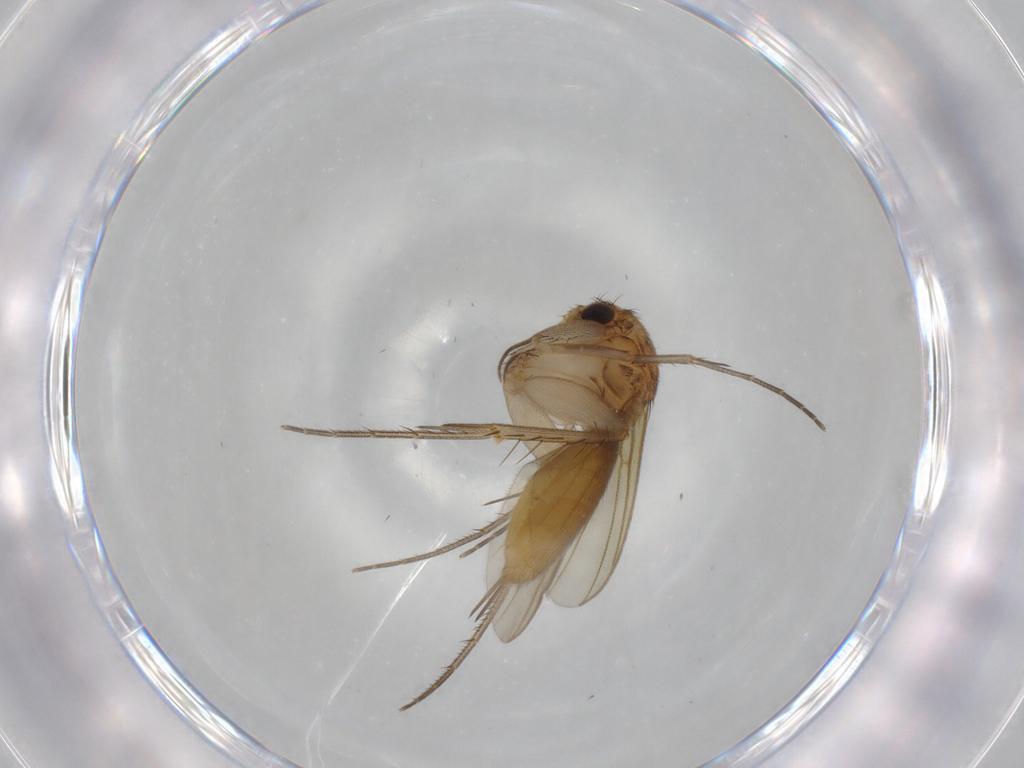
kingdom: Animalia
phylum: Arthropoda
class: Insecta
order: Diptera
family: Mycetophilidae
